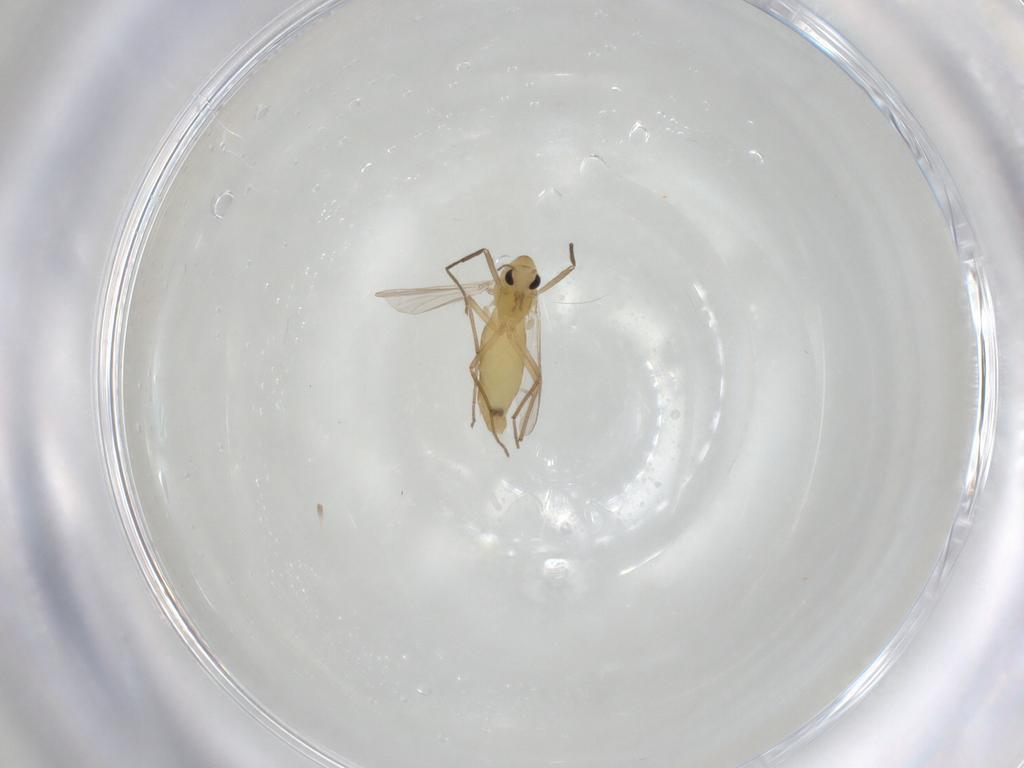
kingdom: Animalia
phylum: Arthropoda
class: Insecta
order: Diptera
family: Chironomidae
